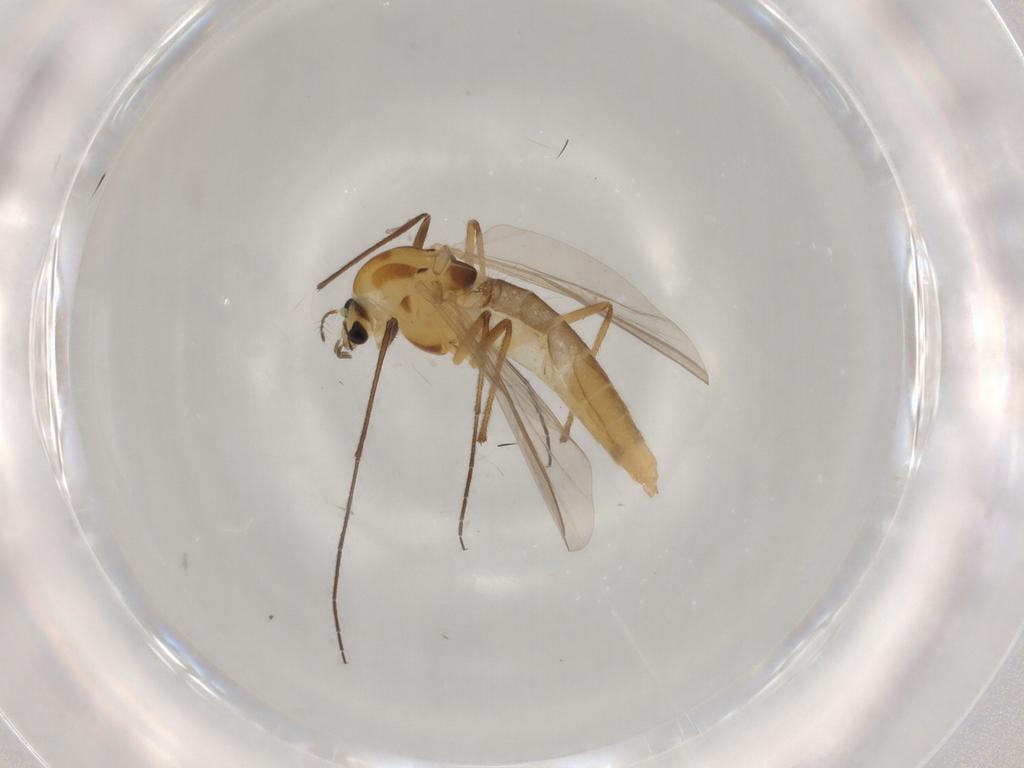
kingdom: Animalia
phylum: Arthropoda
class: Insecta
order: Diptera
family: Chironomidae
